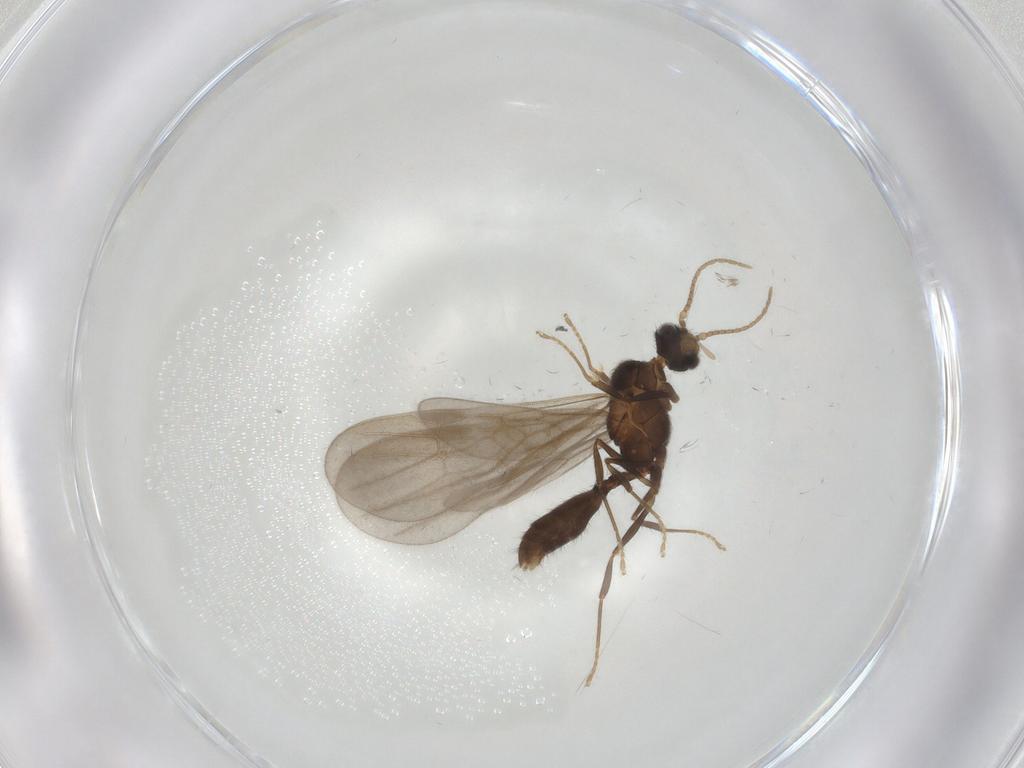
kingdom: Animalia
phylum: Arthropoda
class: Insecta
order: Hymenoptera
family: Formicidae
